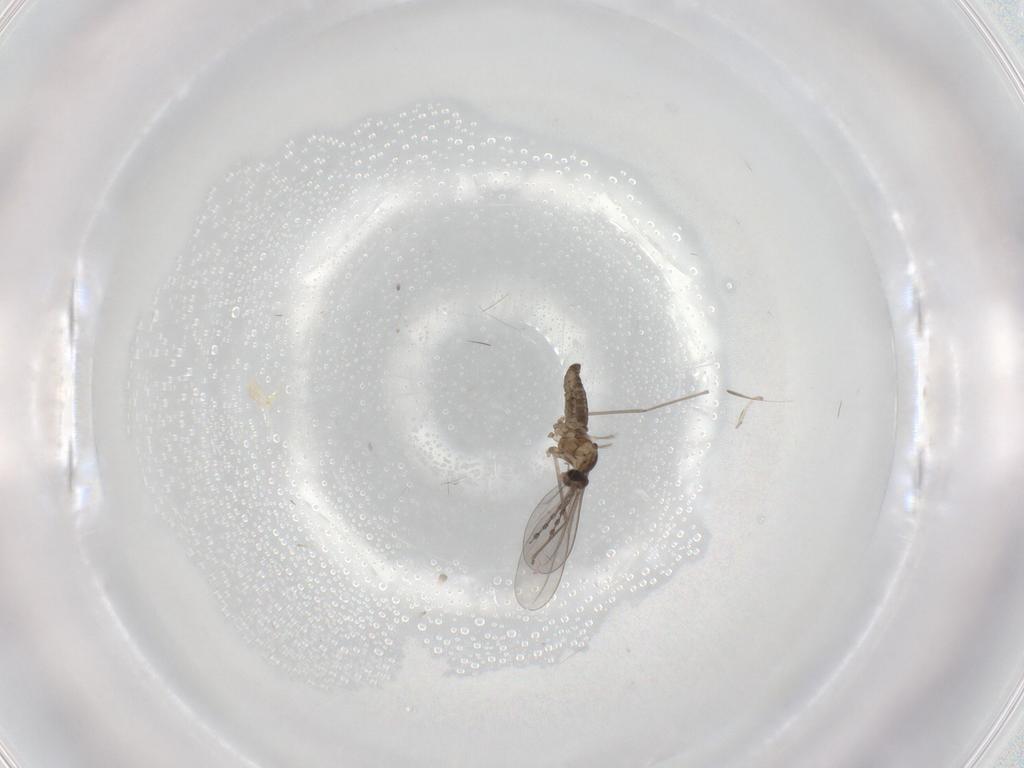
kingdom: Animalia
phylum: Arthropoda
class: Insecta
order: Diptera
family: Cecidomyiidae
